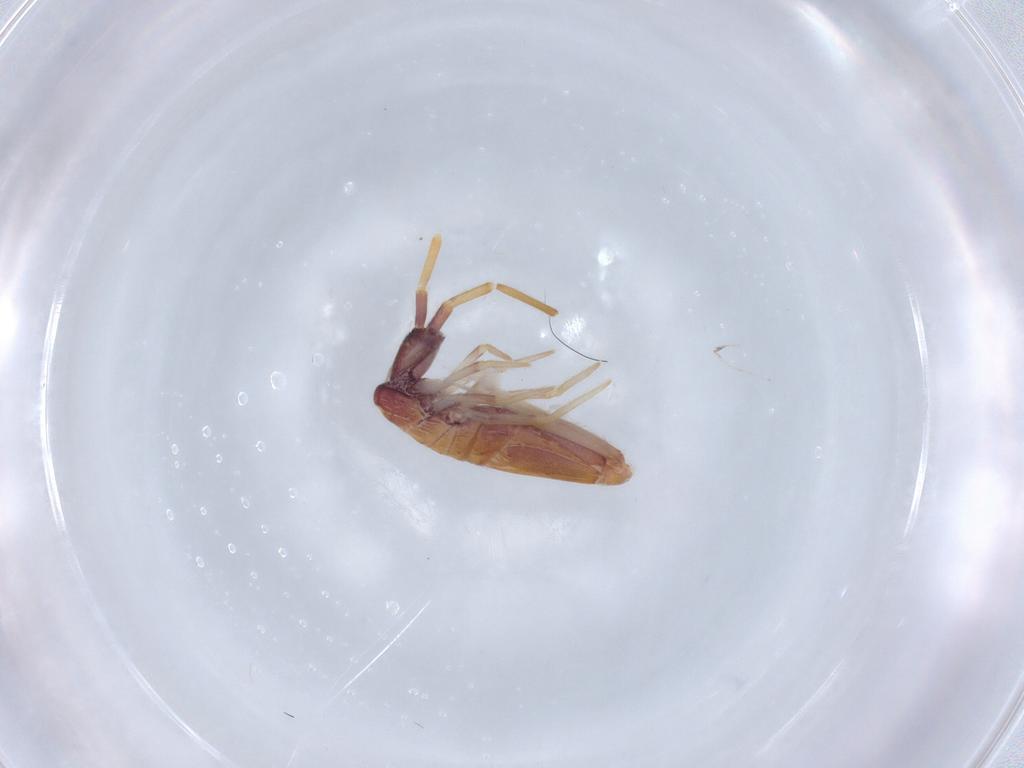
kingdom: Animalia
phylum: Arthropoda
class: Collembola
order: Entomobryomorpha
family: Entomobryidae
